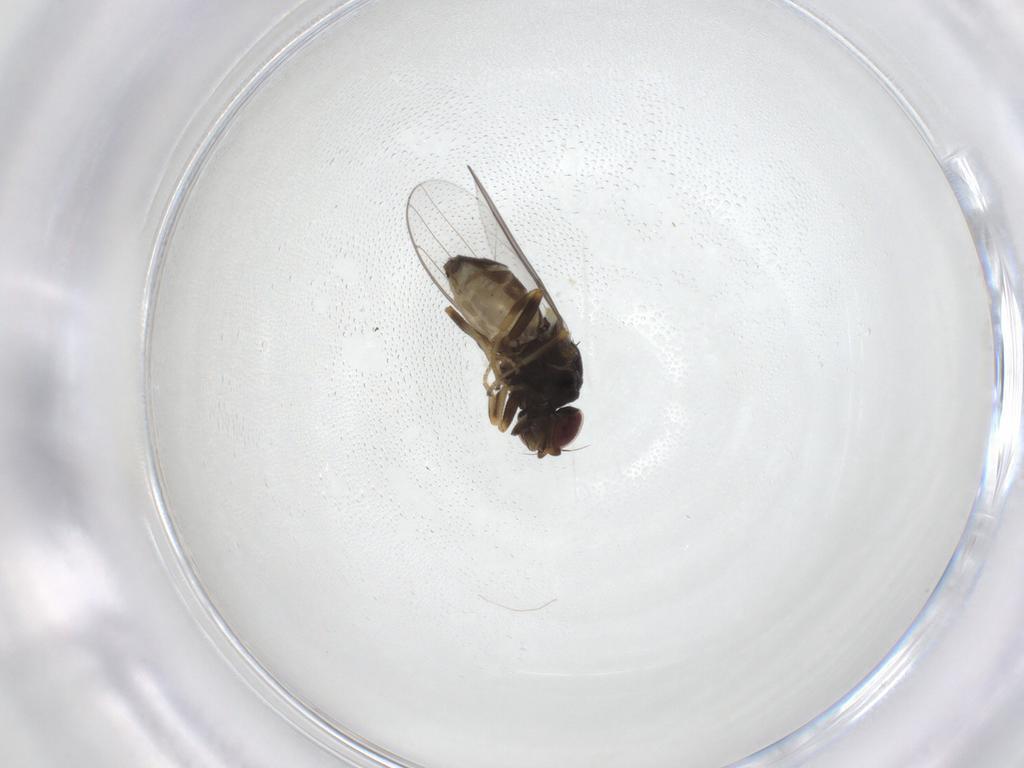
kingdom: Animalia
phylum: Arthropoda
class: Insecta
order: Diptera
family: Chloropidae
